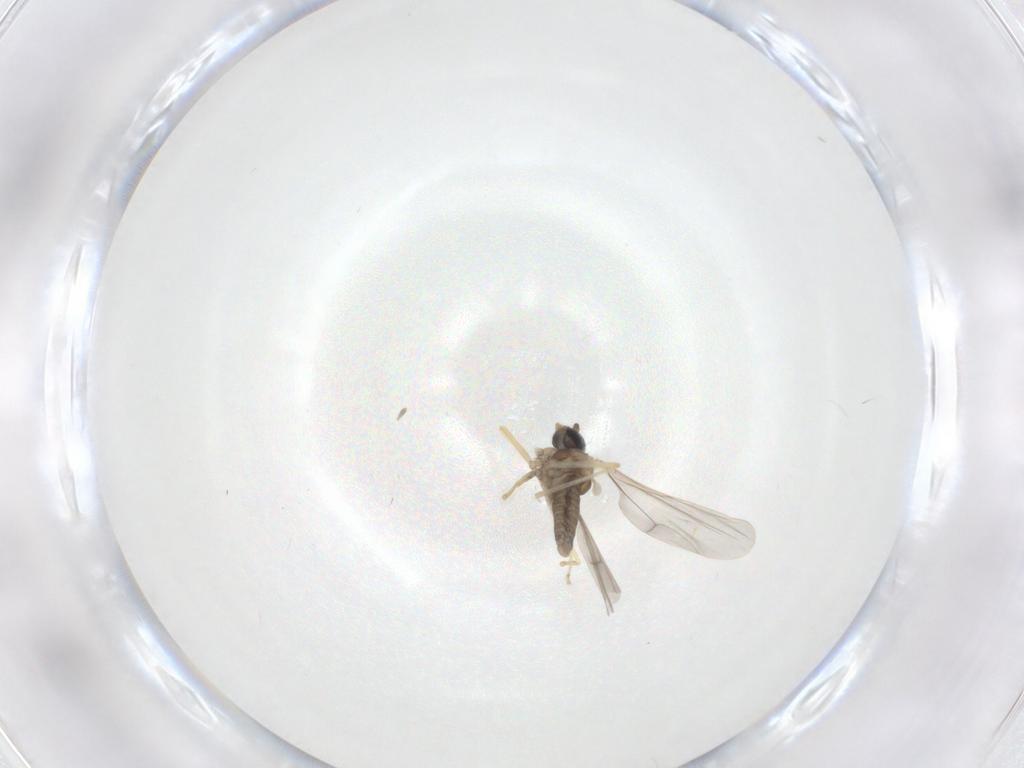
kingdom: Animalia
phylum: Arthropoda
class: Insecta
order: Diptera
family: Cecidomyiidae
